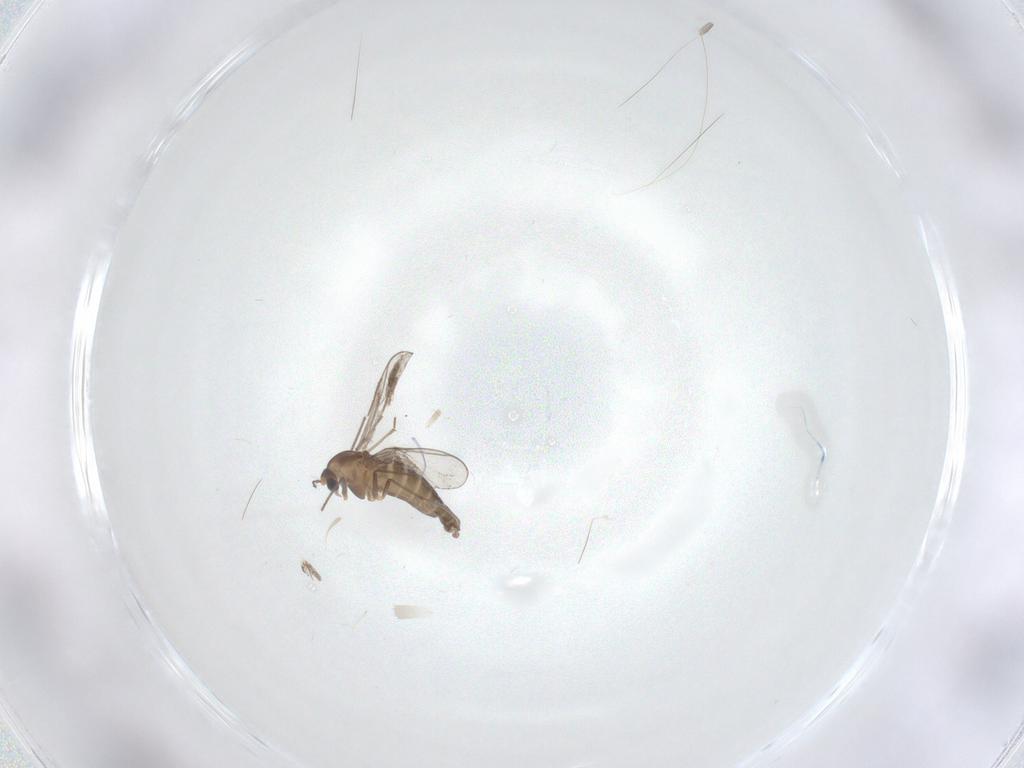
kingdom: Animalia
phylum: Arthropoda
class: Insecta
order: Diptera
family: Chironomidae
